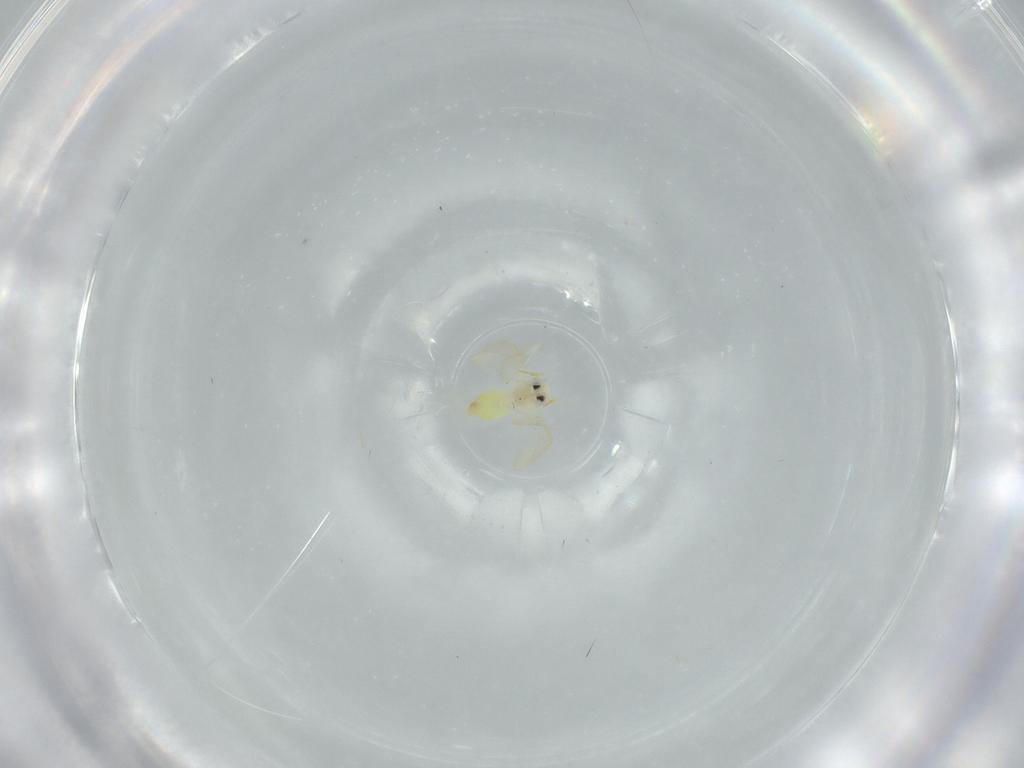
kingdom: Animalia
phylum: Arthropoda
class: Insecta
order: Hemiptera
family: Aleyrodidae
